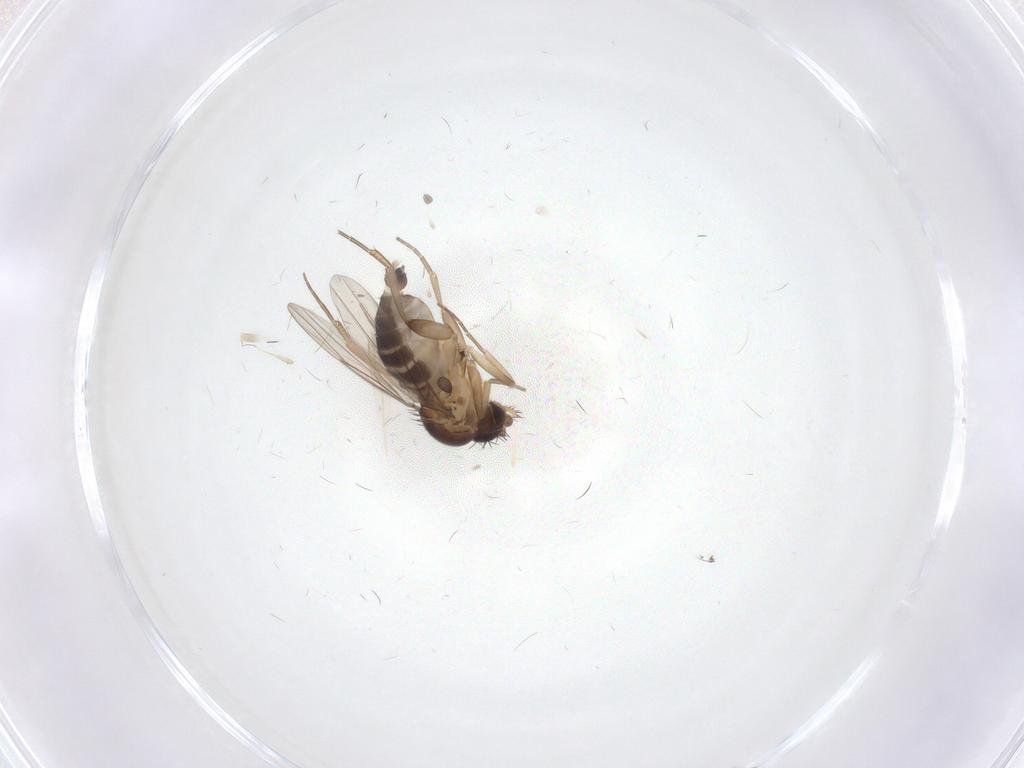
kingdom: Animalia
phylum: Arthropoda
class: Insecta
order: Diptera
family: Phoridae
